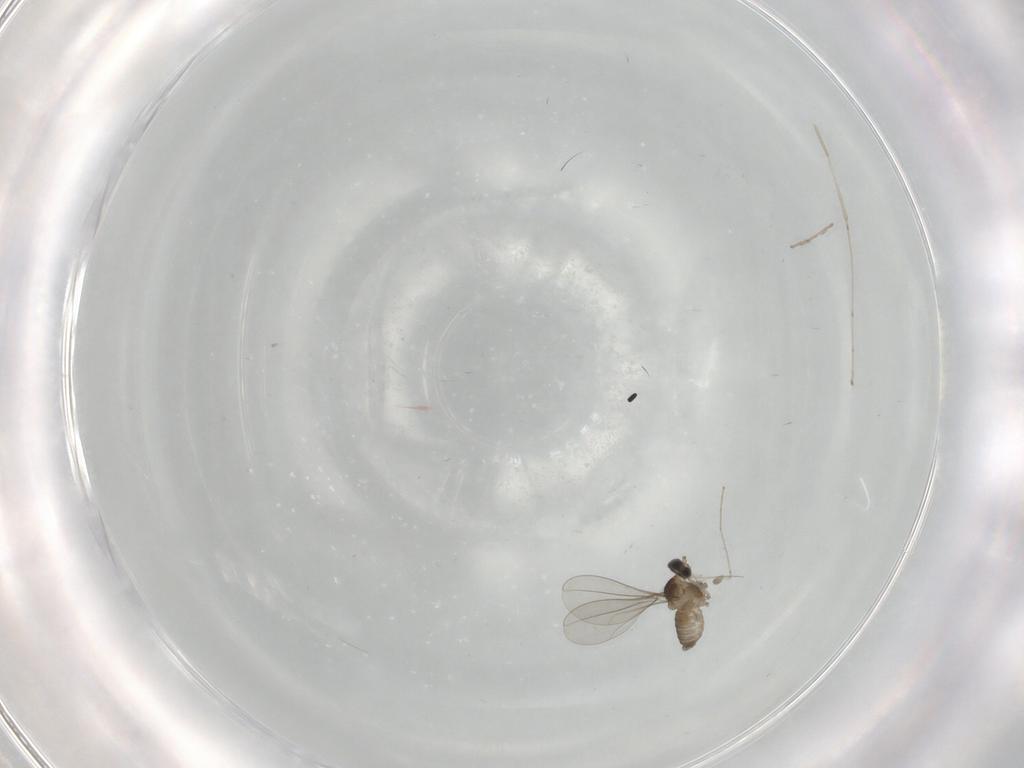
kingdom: Animalia
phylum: Arthropoda
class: Insecta
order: Diptera
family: Cecidomyiidae
